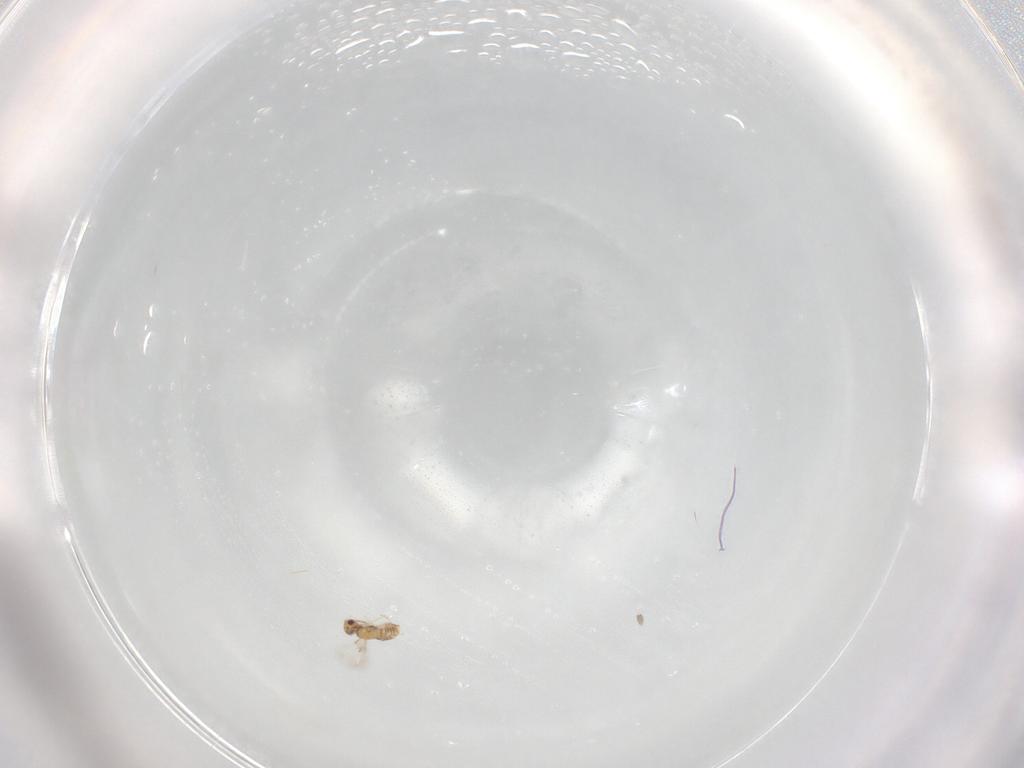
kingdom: Animalia
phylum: Arthropoda
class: Insecta
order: Hymenoptera
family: Aphelinidae
